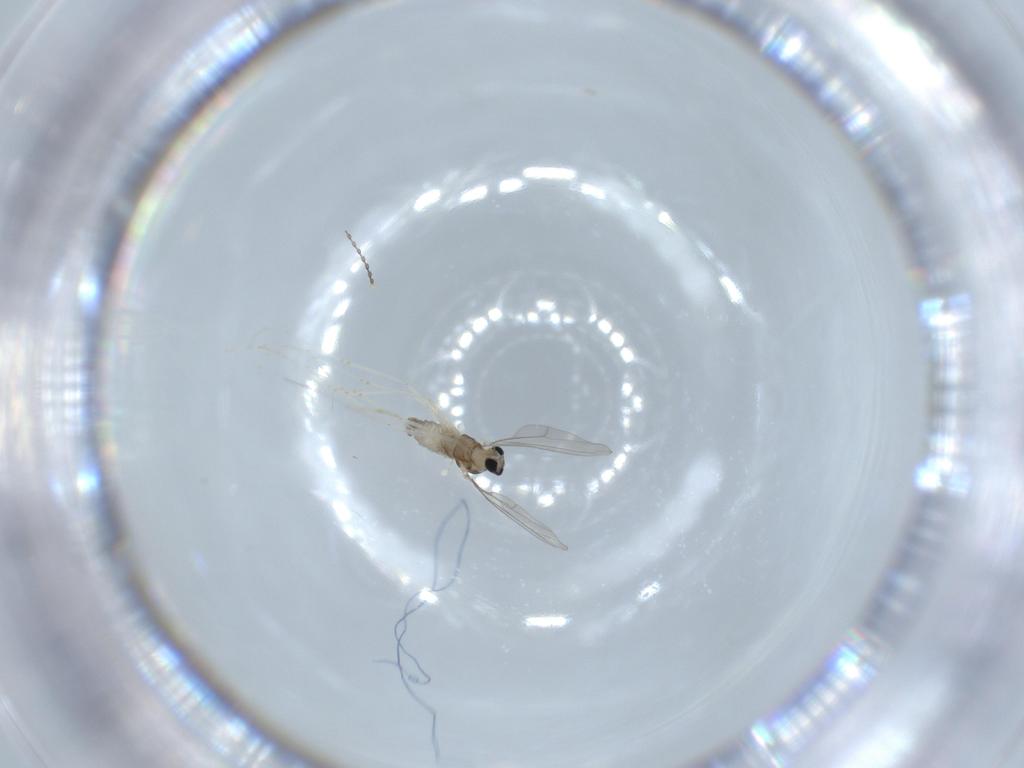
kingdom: Animalia
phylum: Arthropoda
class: Insecta
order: Diptera
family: Cecidomyiidae
